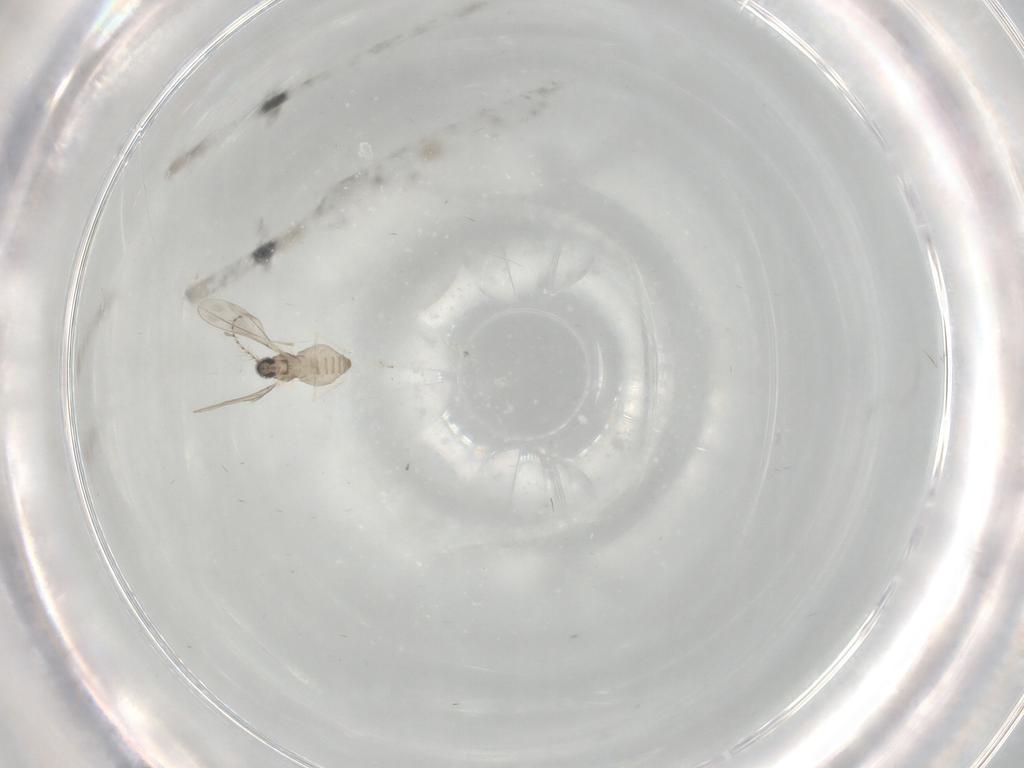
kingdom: Animalia
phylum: Arthropoda
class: Insecta
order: Diptera
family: Cecidomyiidae
